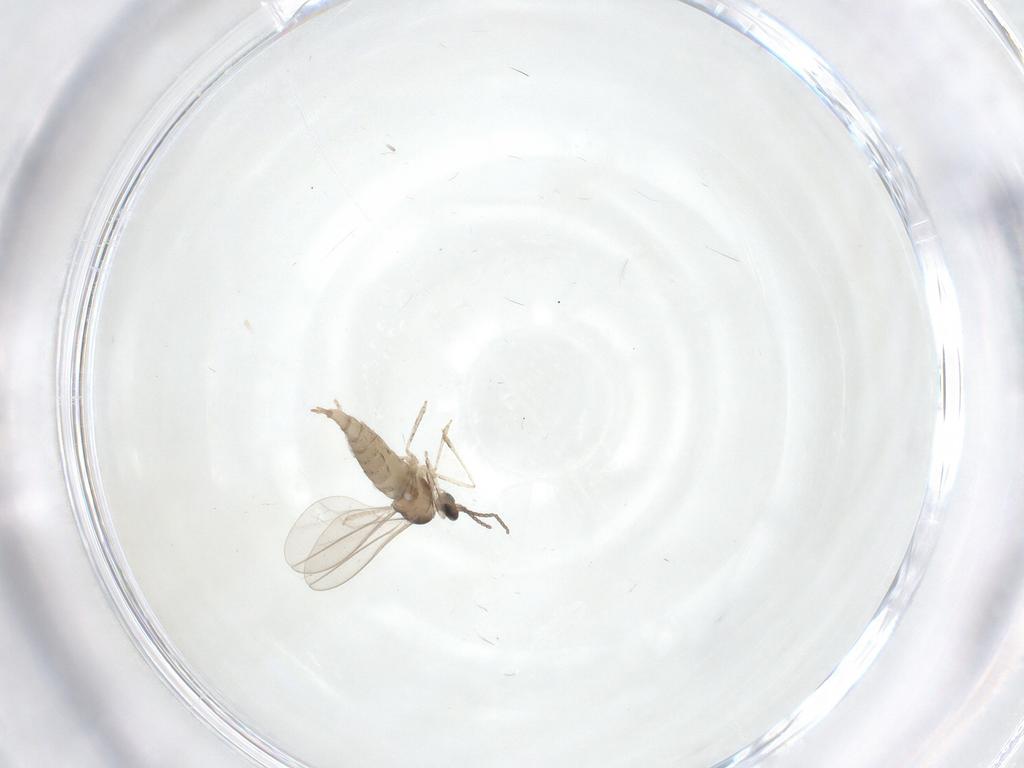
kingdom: Animalia
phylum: Arthropoda
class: Insecta
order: Diptera
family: Cecidomyiidae
